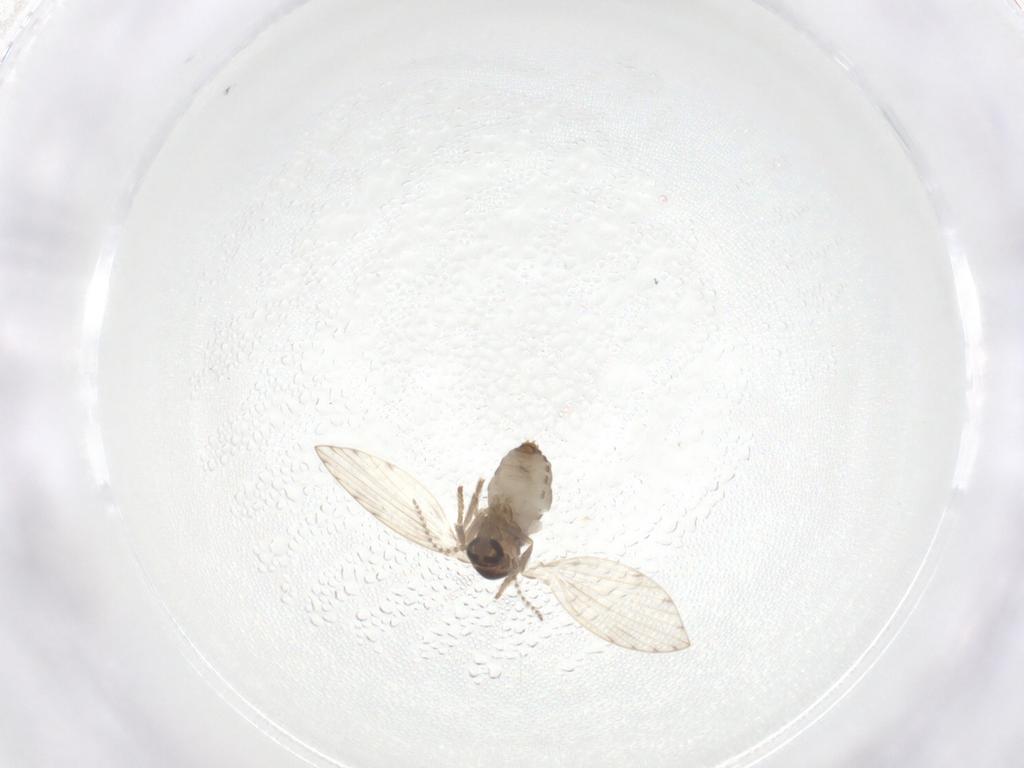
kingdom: Animalia
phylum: Arthropoda
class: Insecta
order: Diptera
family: Psychodidae
